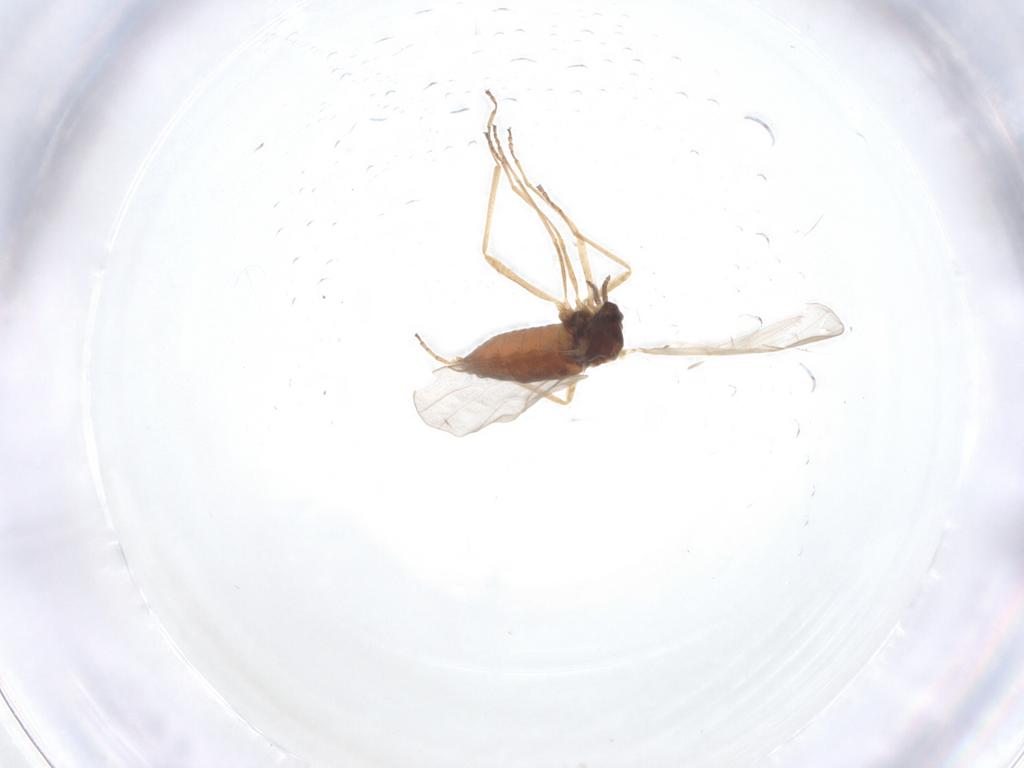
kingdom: Animalia
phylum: Arthropoda
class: Insecta
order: Diptera
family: Cecidomyiidae
